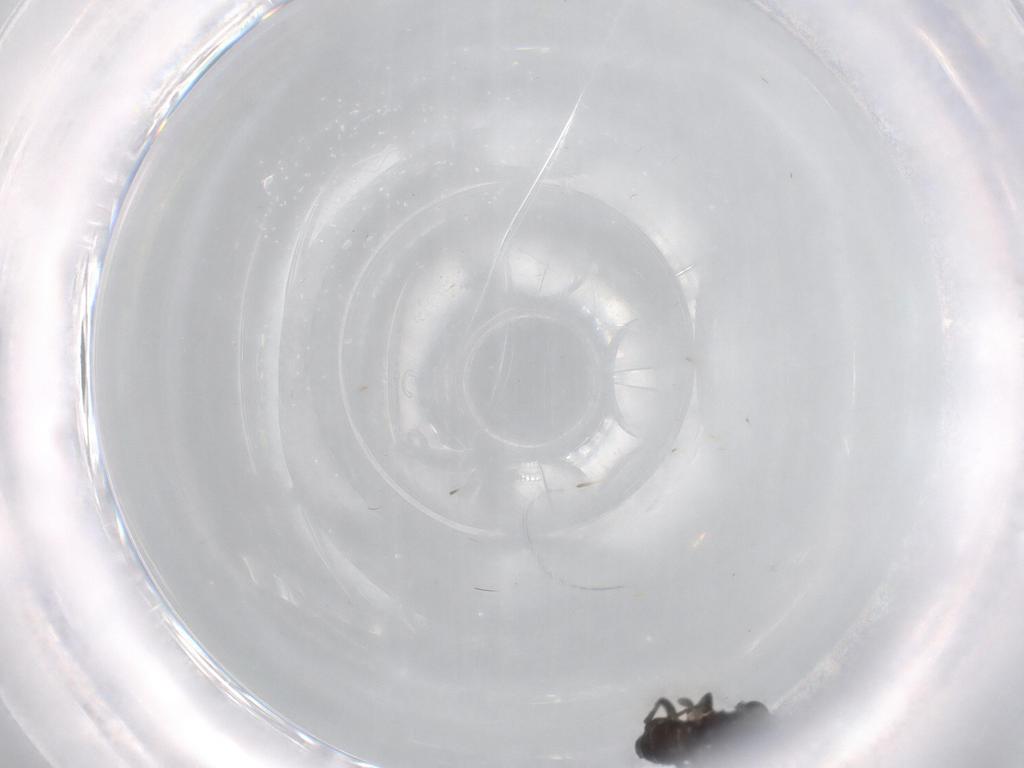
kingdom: Animalia
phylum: Arthropoda
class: Insecta
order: Diptera
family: Sciaridae
